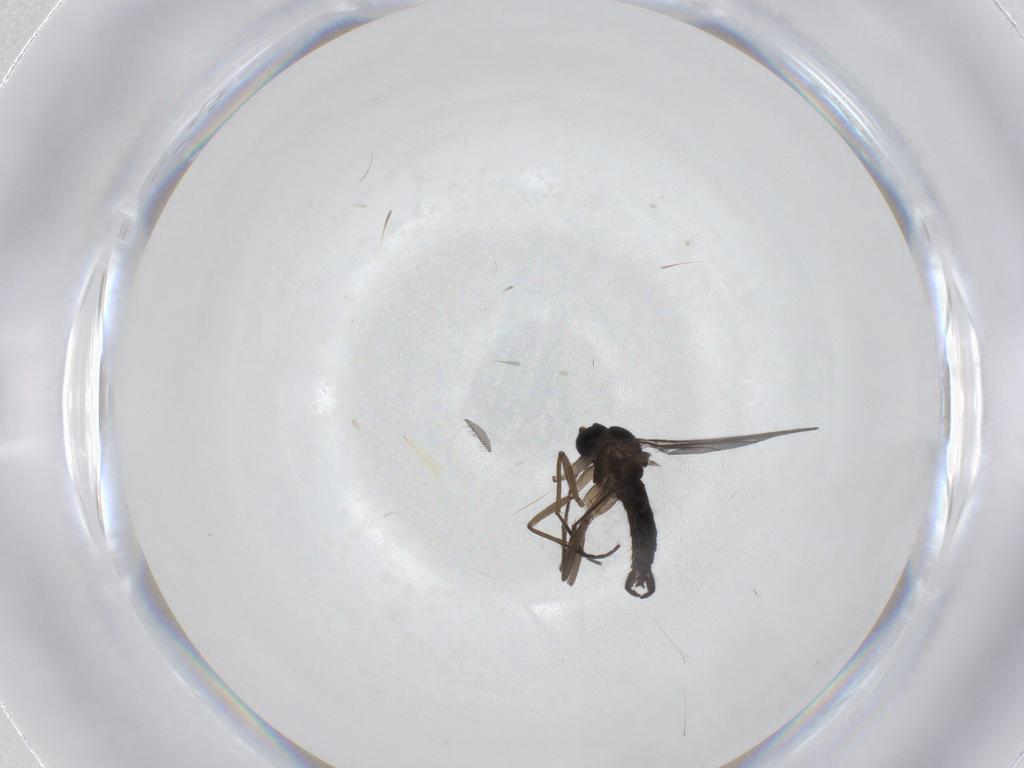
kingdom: Animalia
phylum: Arthropoda
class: Insecta
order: Diptera
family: Sciaridae
